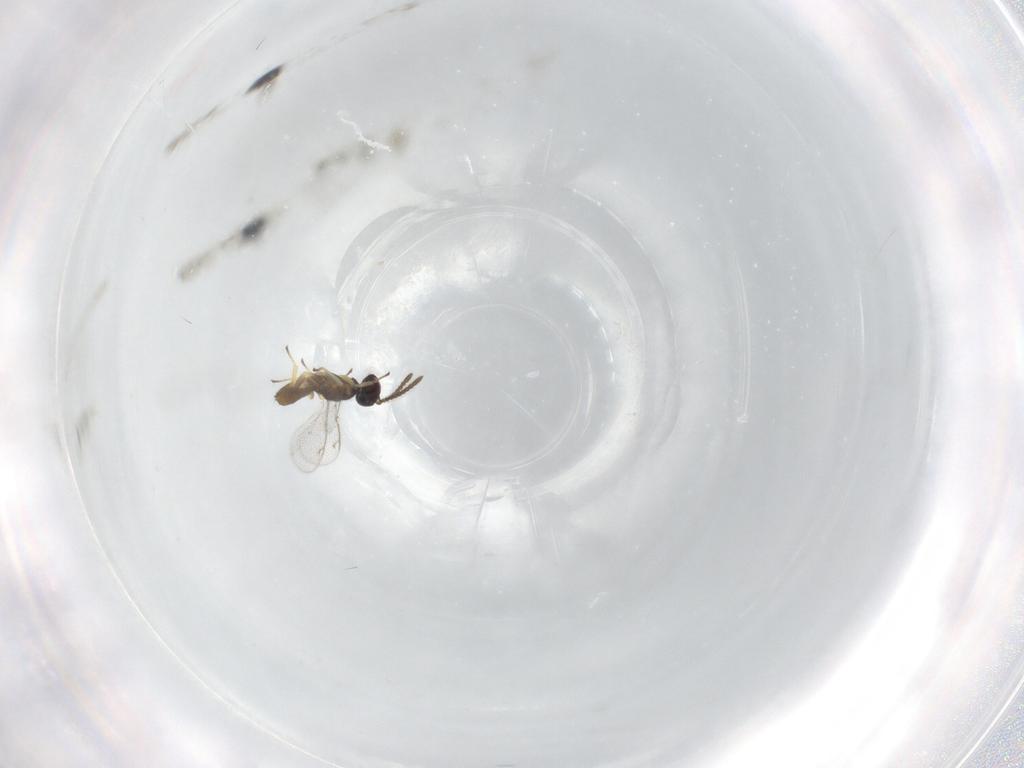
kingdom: Animalia
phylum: Arthropoda
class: Insecta
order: Hymenoptera
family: Eupelmidae
